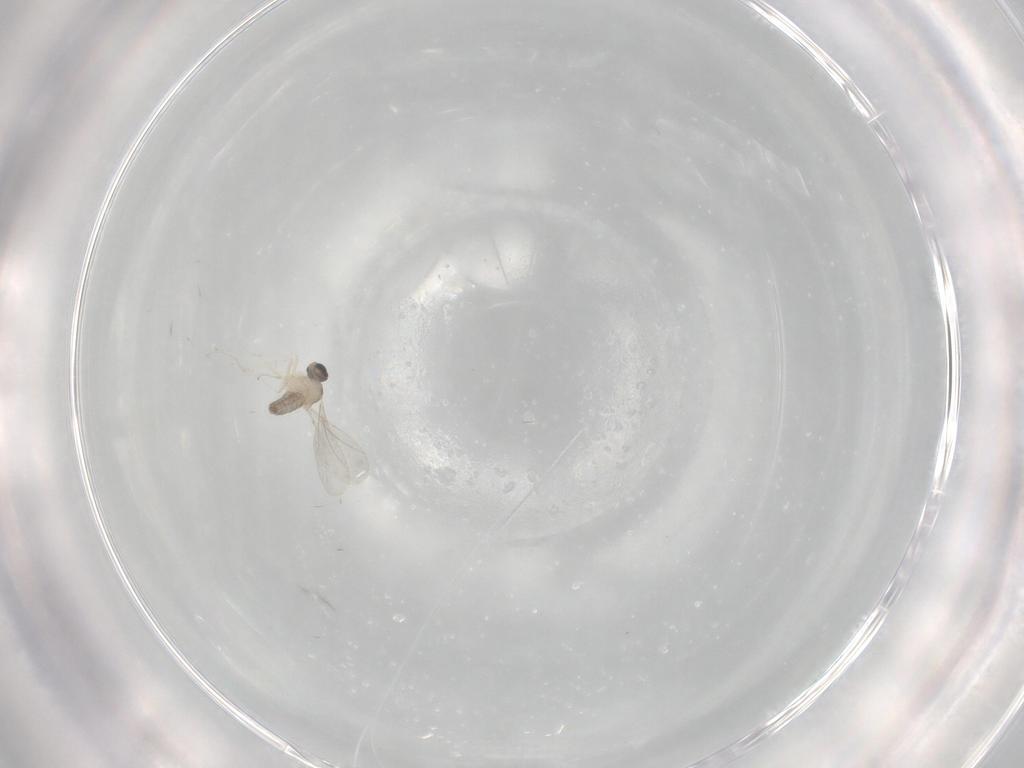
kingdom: Animalia
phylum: Arthropoda
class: Insecta
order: Diptera
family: Cecidomyiidae
